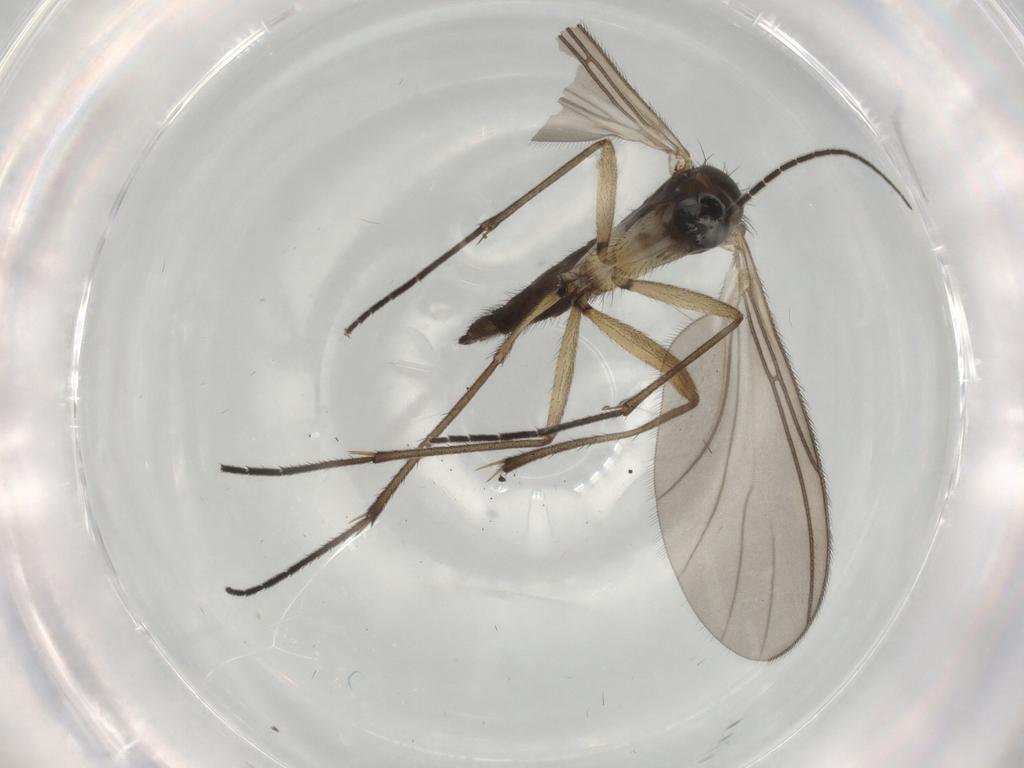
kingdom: Animalia
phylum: Arthropoda
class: Insecta
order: Diptera
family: Sciaridae
